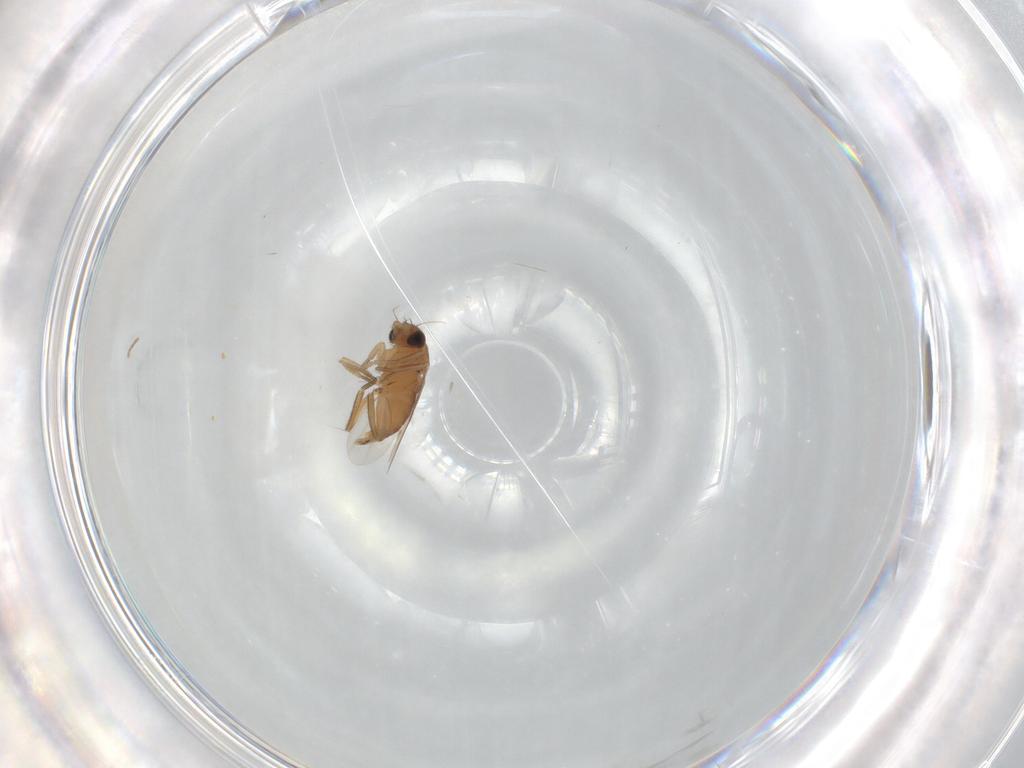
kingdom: Animalia
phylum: Arthropoda
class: Insecta
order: Diptera
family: Phoridae
